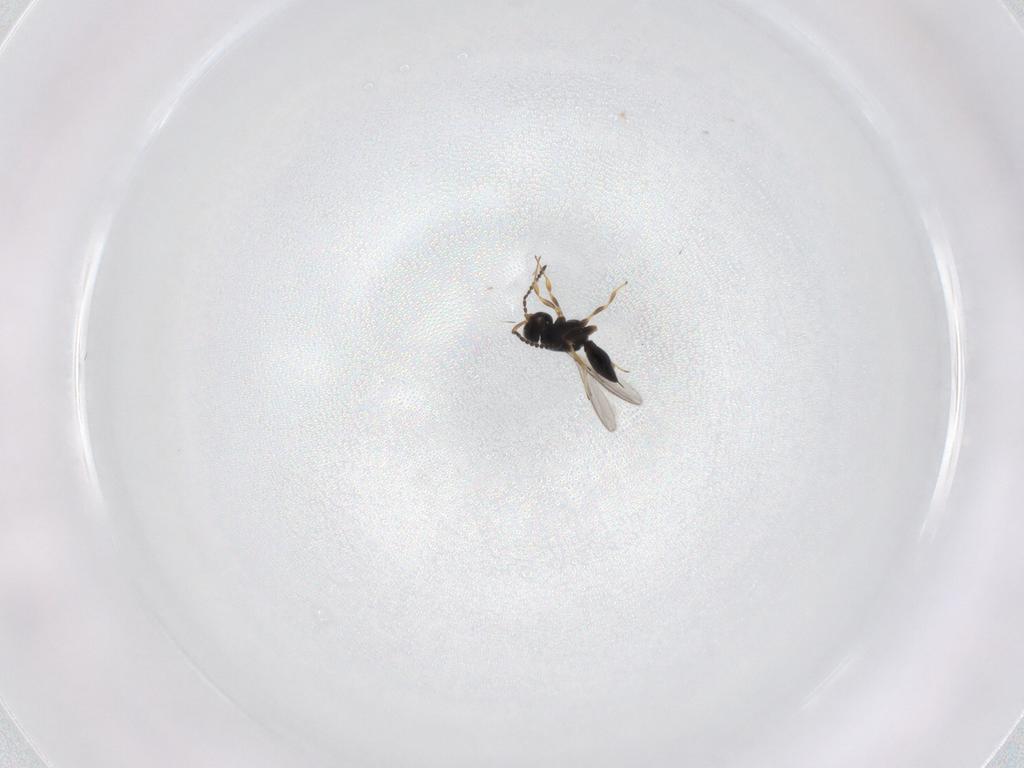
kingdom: Animalia
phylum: Arthropoda
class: Insecta
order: Hymenoptera
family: Scelionidae
